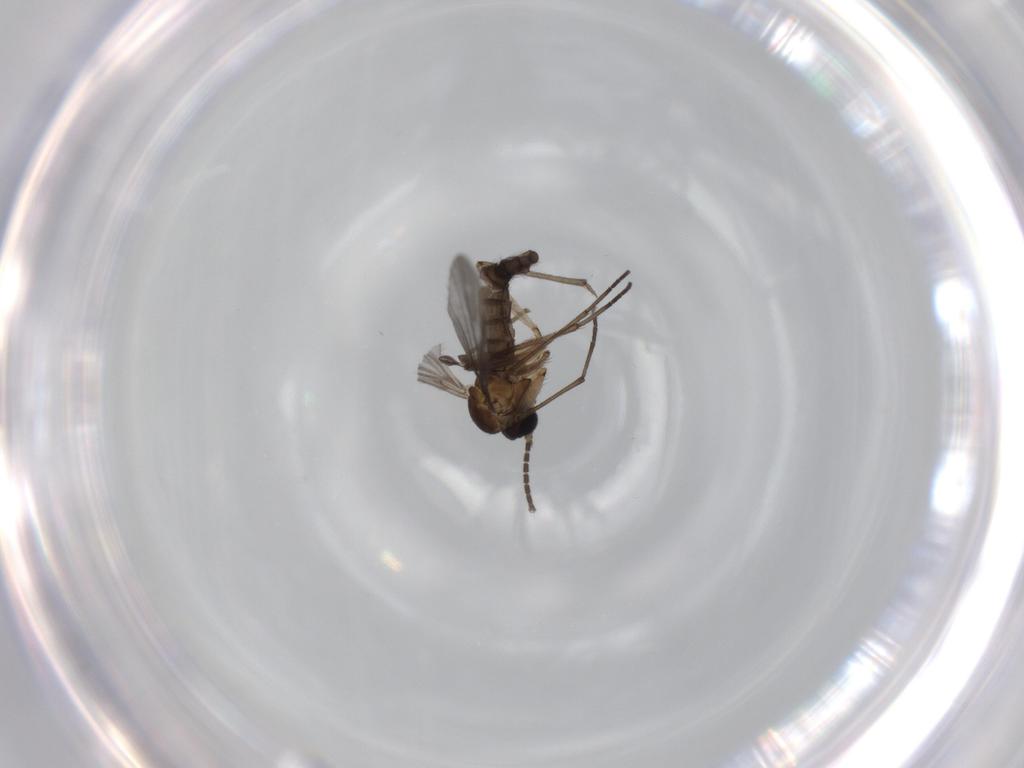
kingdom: Animalia
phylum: Arthropoda
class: Insecta
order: Diptera
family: Sciaridae
